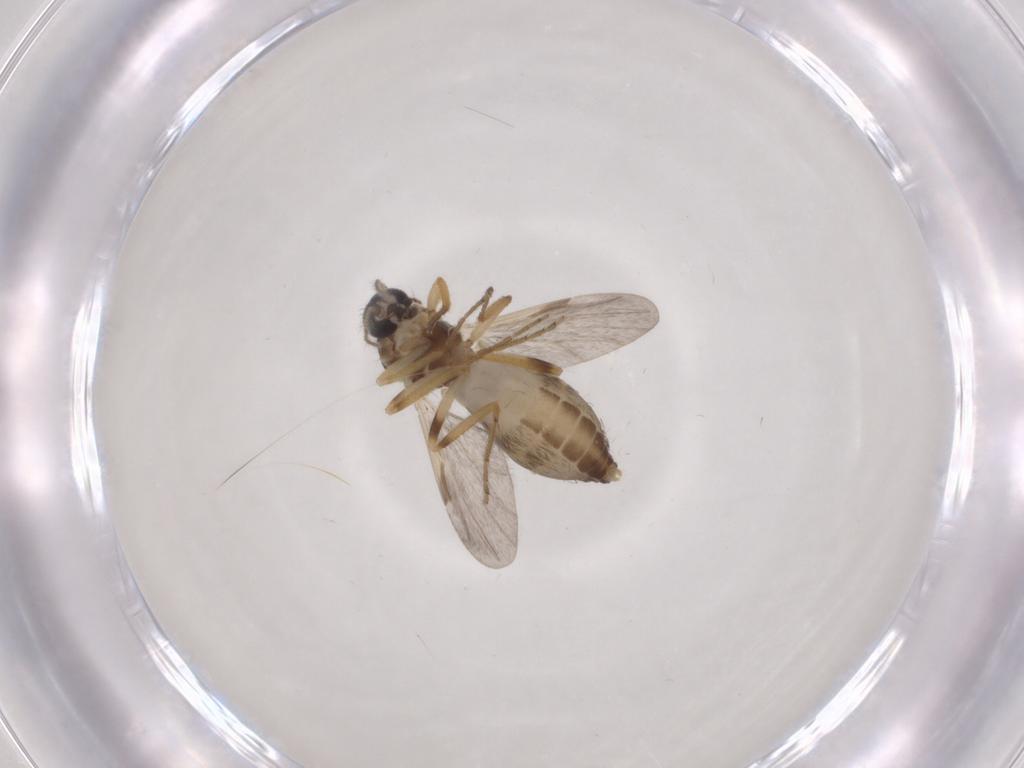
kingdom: Animalia
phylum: Arthropoda
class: Insecta
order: Diptera
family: Ceratopogonidae
